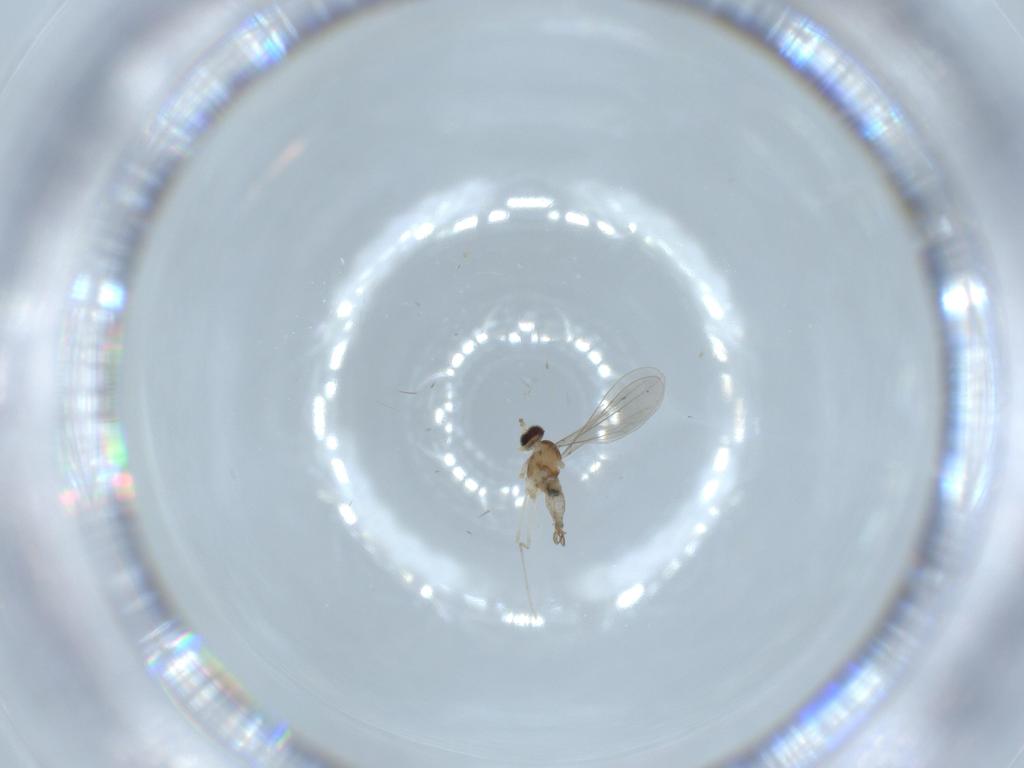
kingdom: Animalia
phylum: Arthropoda
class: Insecta
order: Diptera
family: Cecidomyiidae
